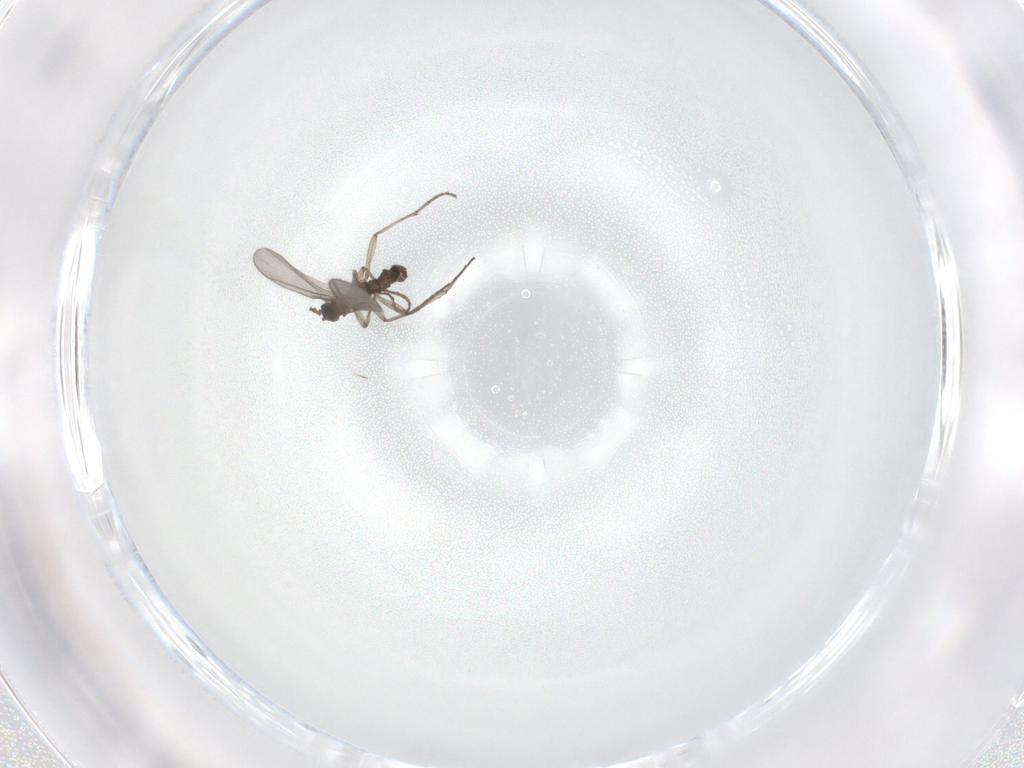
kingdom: Animalia
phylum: Arthropoda
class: Insecta
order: Diptera
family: Sciaridae
